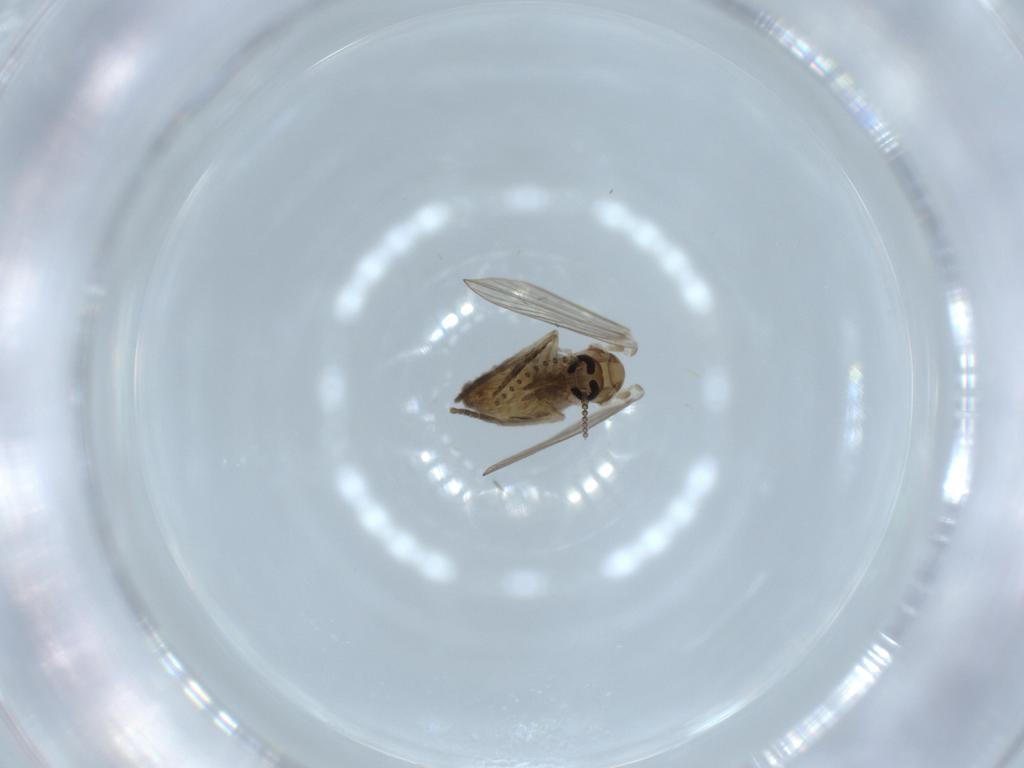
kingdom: Animalia
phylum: Arthropoda
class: Insecta
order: Diptera
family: Psychodidae
